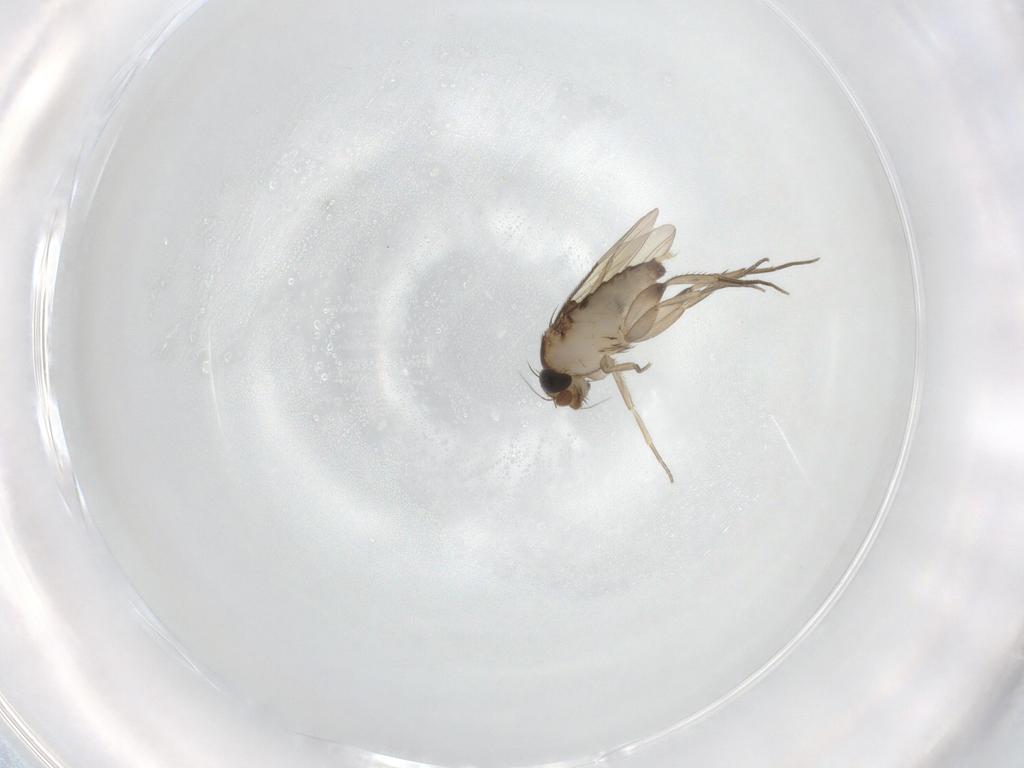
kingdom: Animalia
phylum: Arthropoda
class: Insecta
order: Diptera
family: Phoridae
